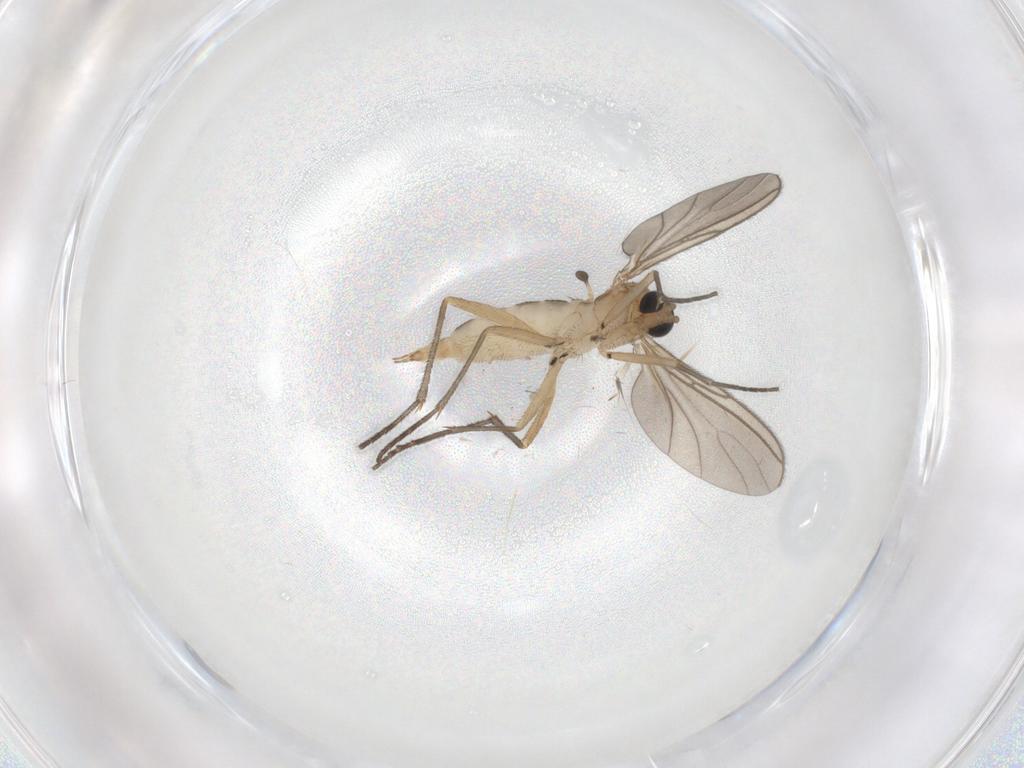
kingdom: Animalia
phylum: Arthropoda
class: Insecta
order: Diptera
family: Sciaridae
